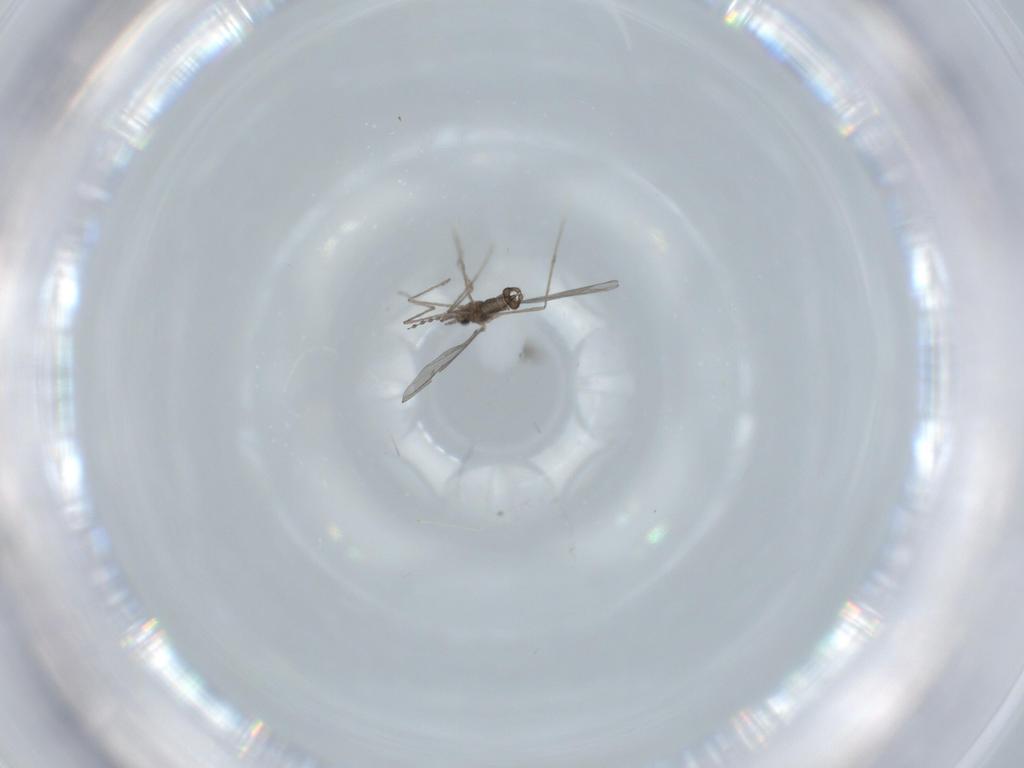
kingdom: Animalia
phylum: Arthropoda
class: Insecta
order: Diptera
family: Cecidomyiidae
